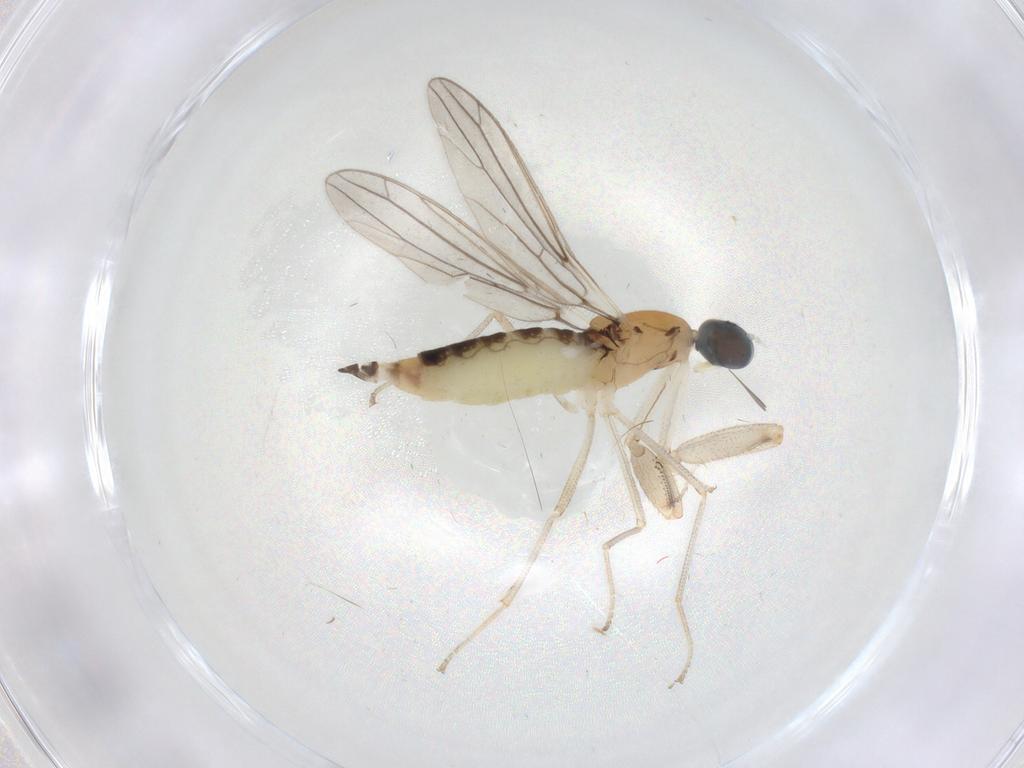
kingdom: Animalia
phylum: Arthropoda
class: Insecta
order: Diptera
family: Empididae
